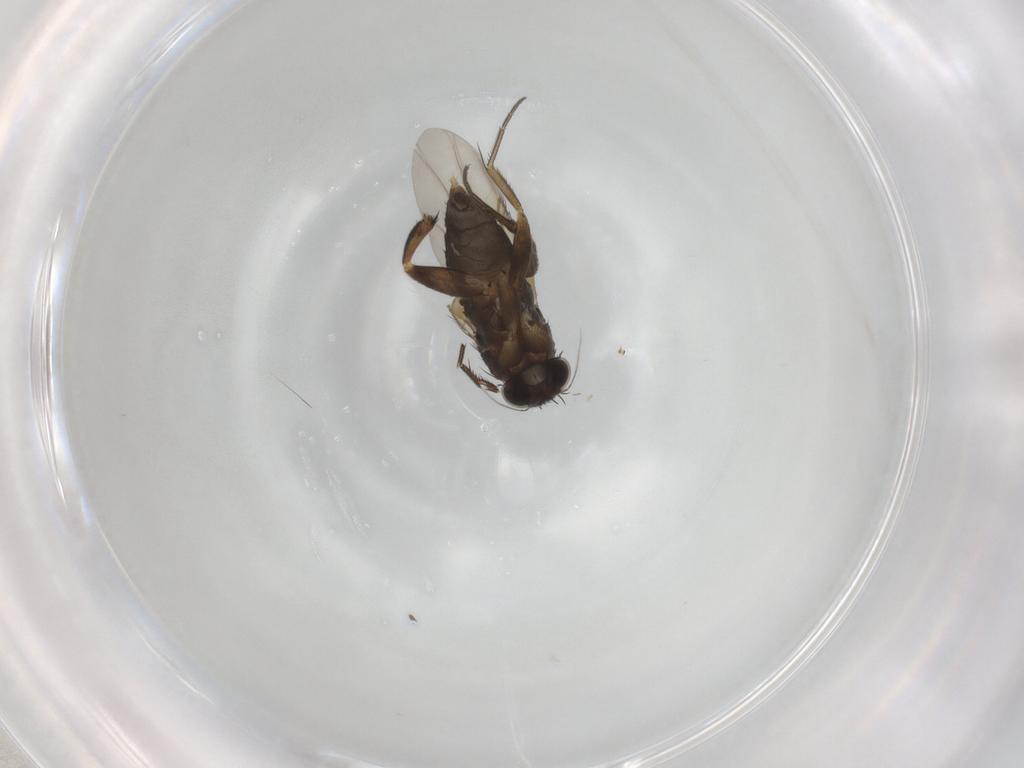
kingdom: Animalia
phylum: Arthropoda
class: Insecta
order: Diptera
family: Phoridae
